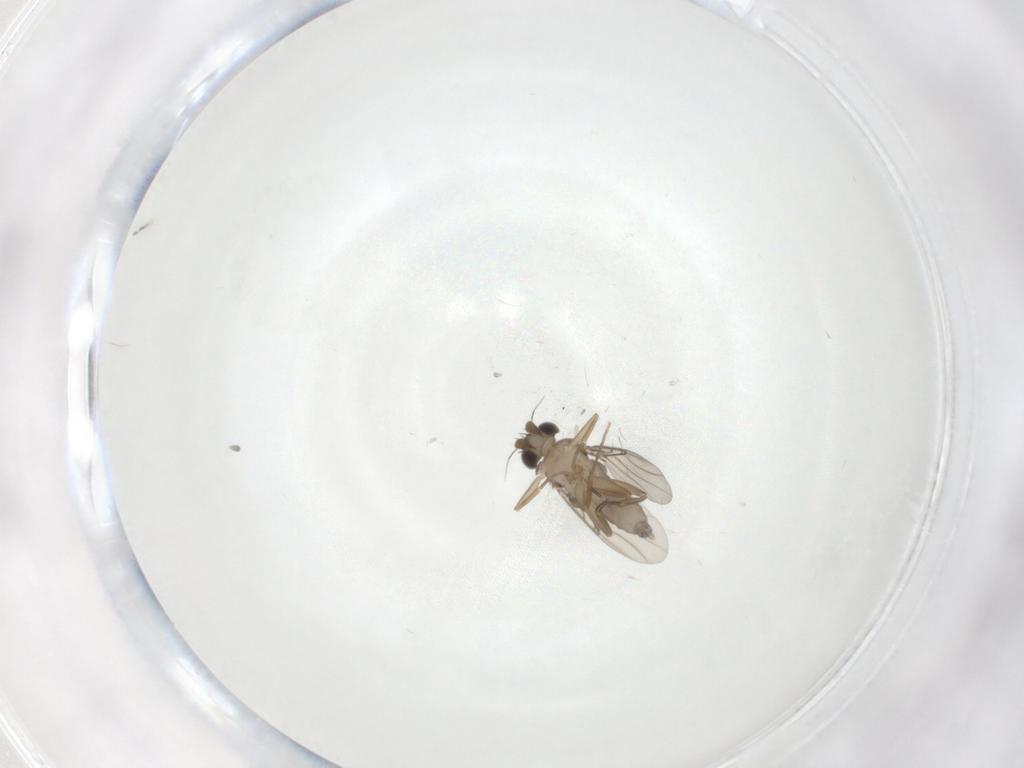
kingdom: Animalia
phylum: Arthropoda
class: Insecta
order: Diptera
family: Phoridae
